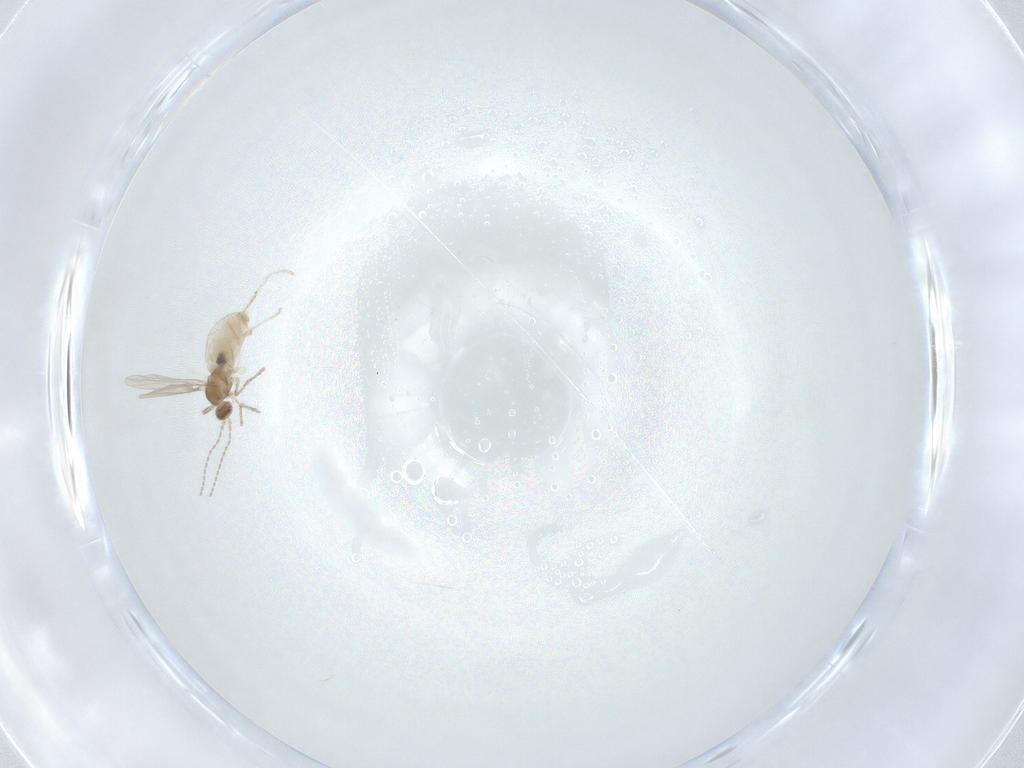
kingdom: Animalia
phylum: Arthropoda
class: Insecta
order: Diptera
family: Cecidomyiidae
